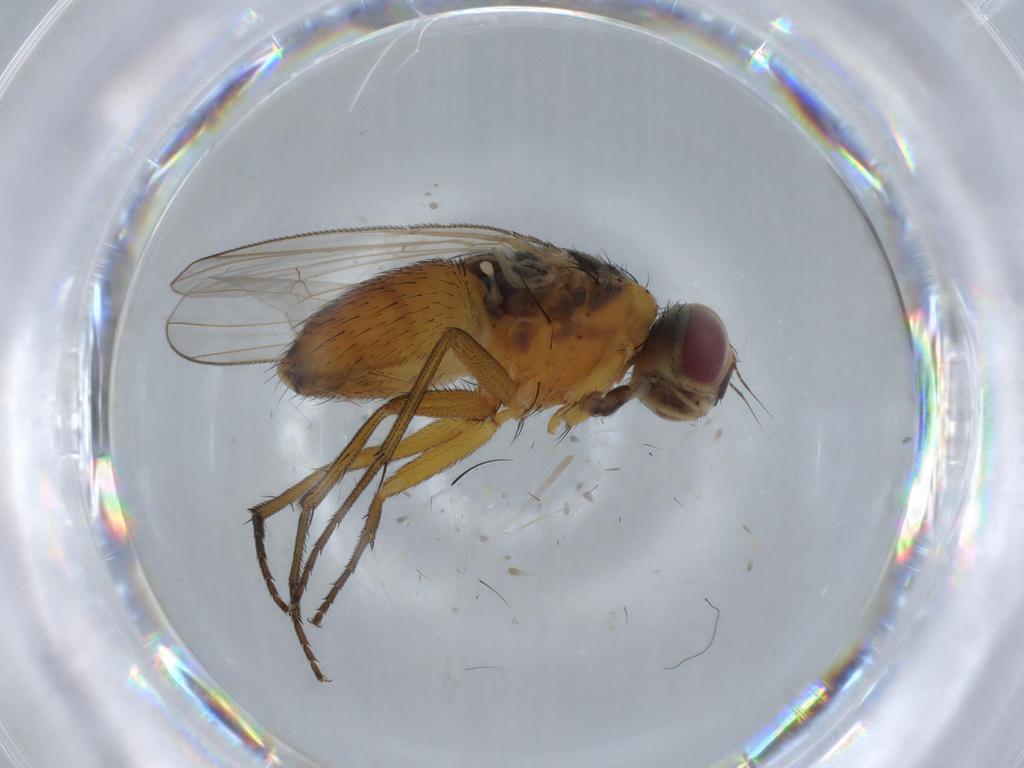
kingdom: Animalia
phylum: Arthropoda
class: Insecta
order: Diptera
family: Muscidae
